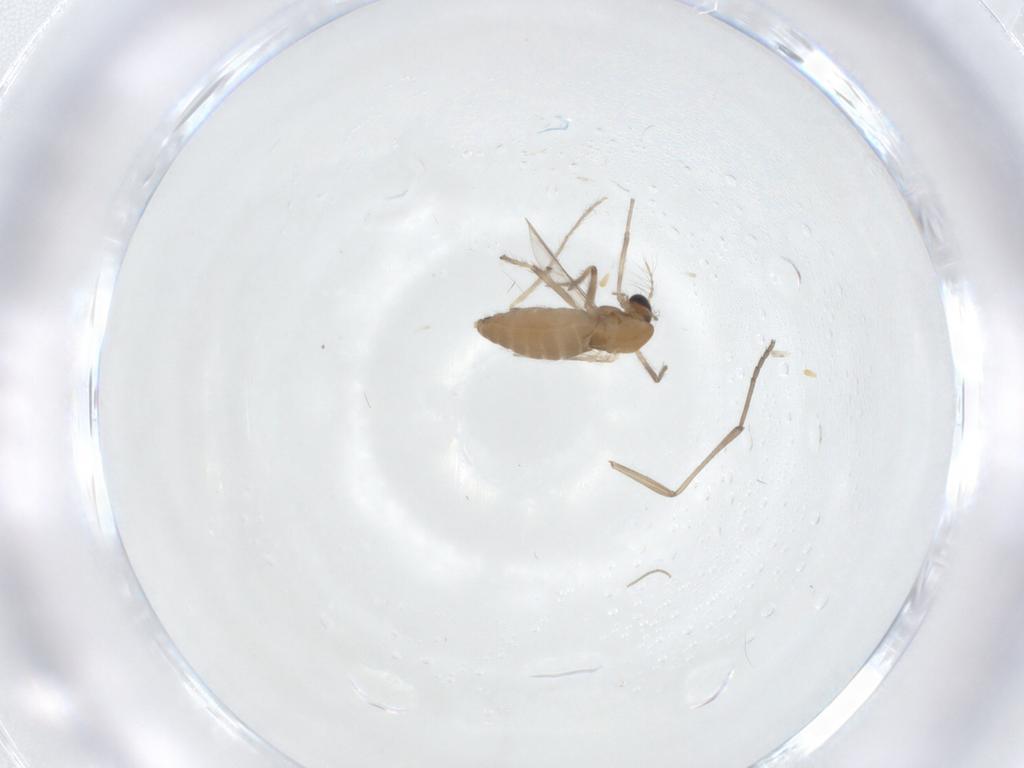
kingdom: Animalia
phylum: Arthropoda
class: Insecta
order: Diptera
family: Chironomidae
